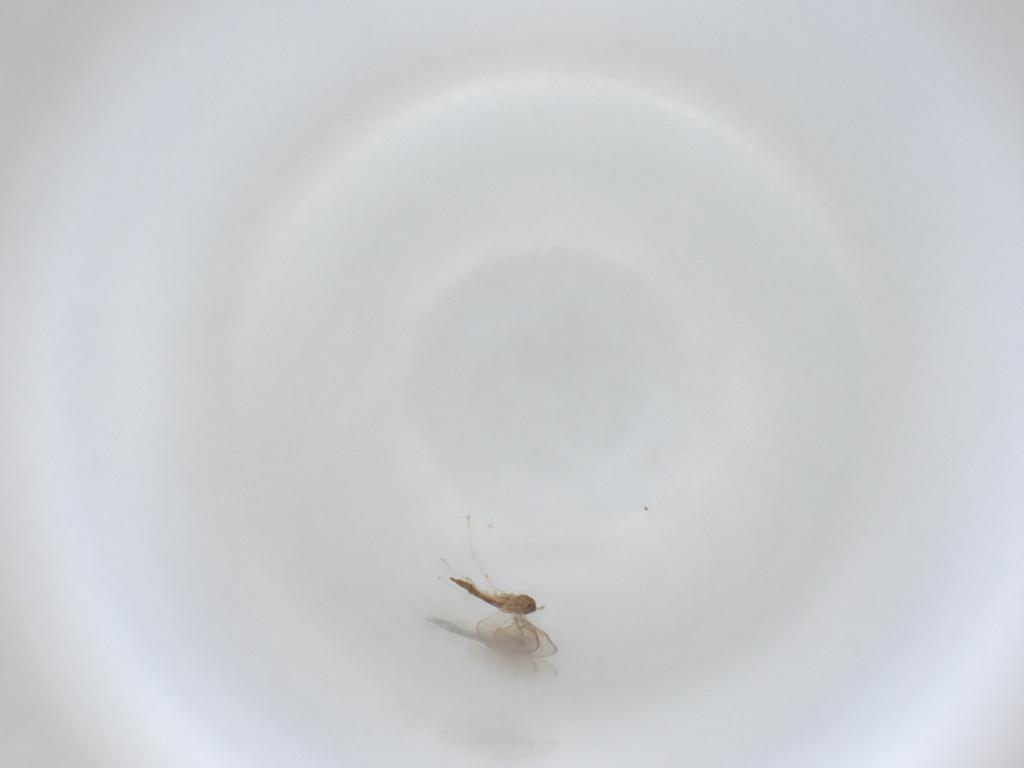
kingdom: Animalia
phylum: Arthropoda
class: Insecta
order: Diptera
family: Cecidomyiidae
